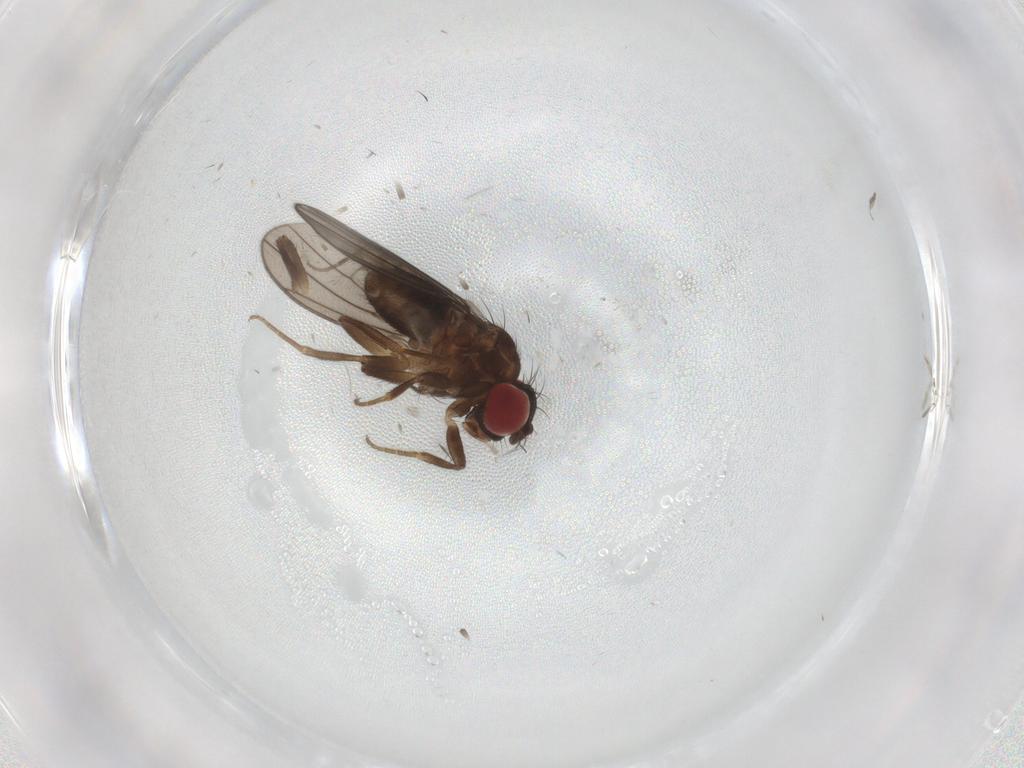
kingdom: Animalia
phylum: Arthropoda
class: Insecta
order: Diptera
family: Drosophilidae
